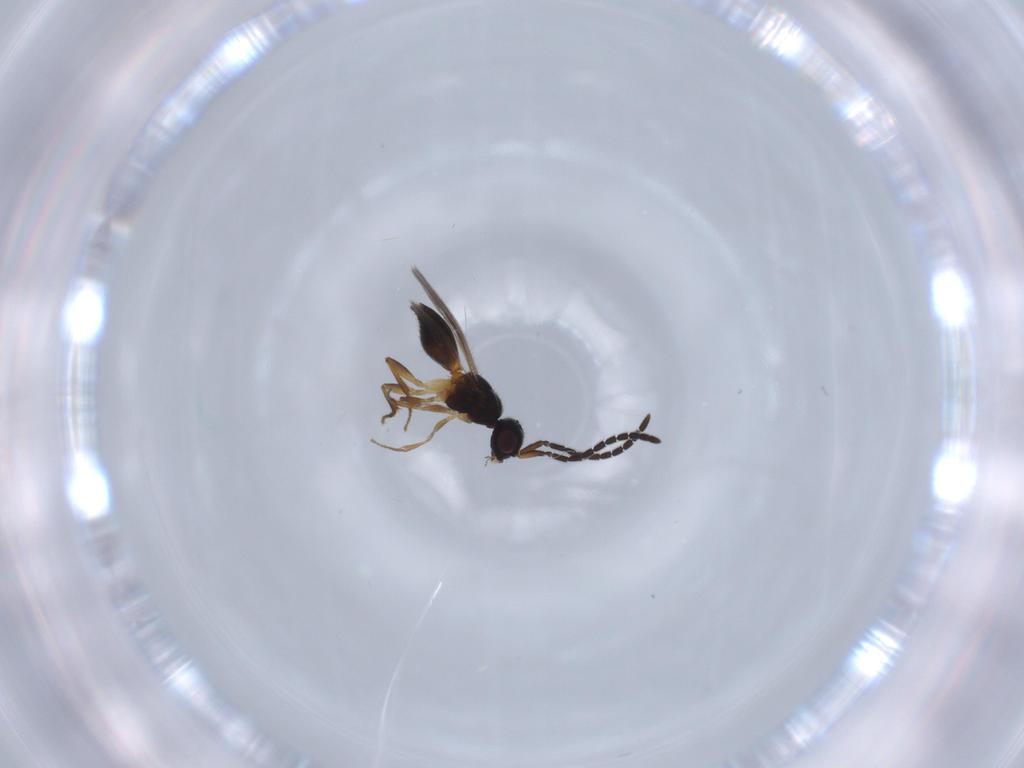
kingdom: Animalia
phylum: Arthropoda
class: Insecta
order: Hymenoptera
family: Megaspilidae
